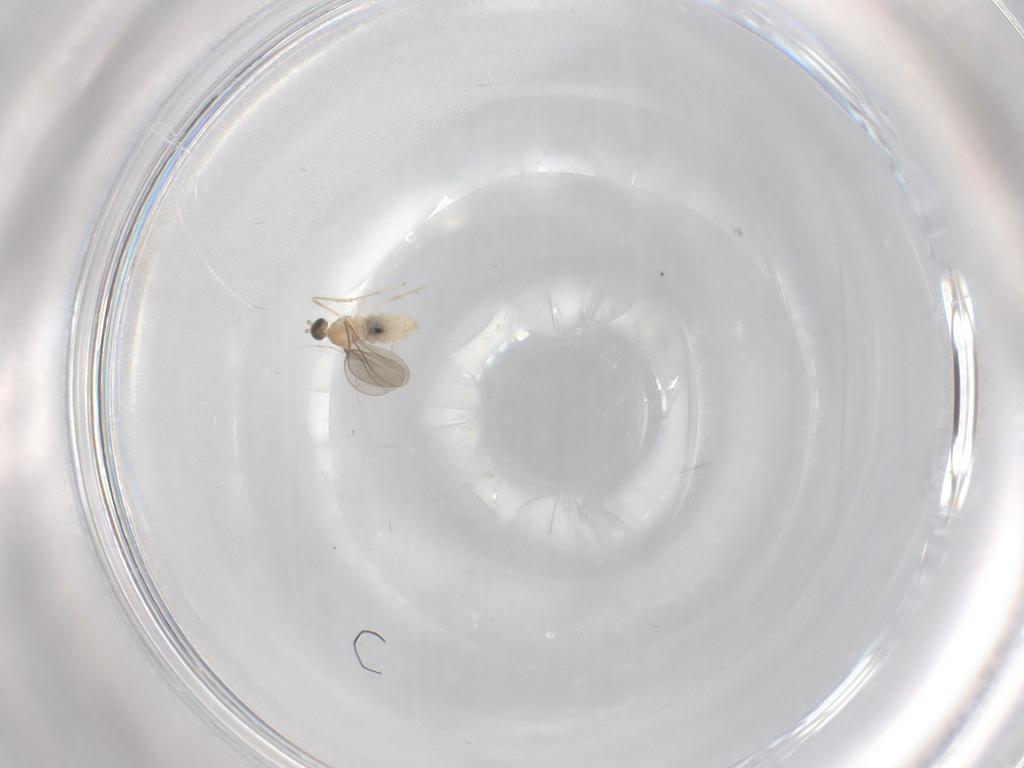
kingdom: Animalia
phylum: Arthropoda
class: Insecta
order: Diptera
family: Cecidomyiidae
